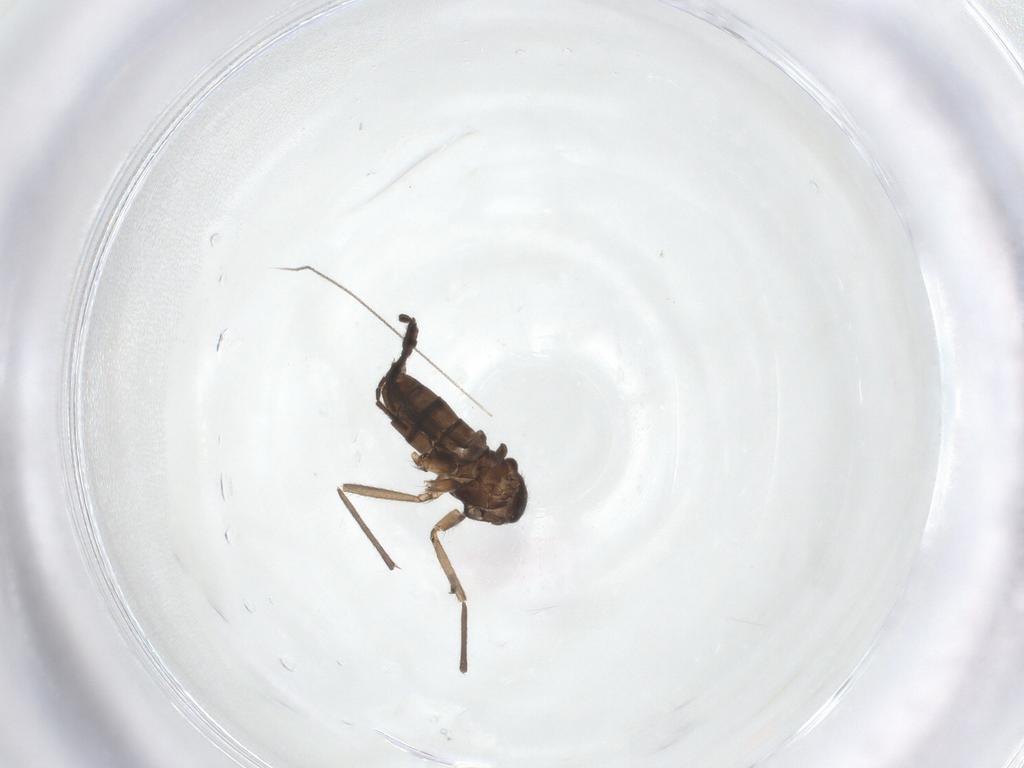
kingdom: Animalia
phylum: Arthropoda
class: Insecta
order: Diptera
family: Sciaridae
